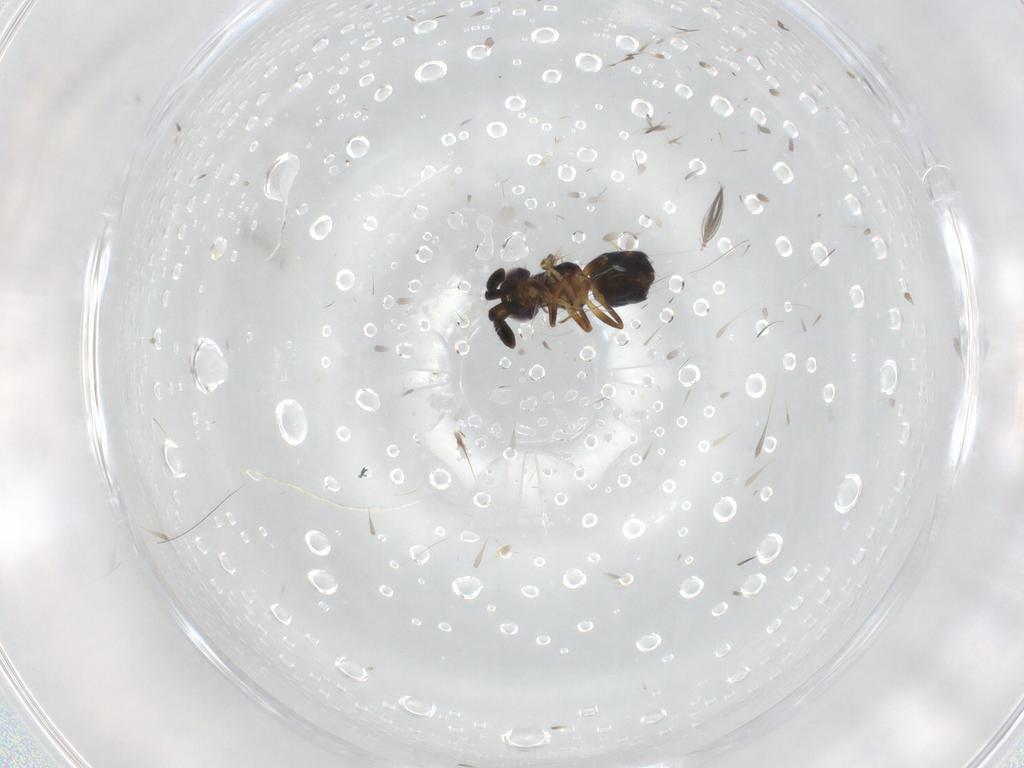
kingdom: Animalia
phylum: Arthropoda
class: Insecta
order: Hymenoptera
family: Encyrtidae
